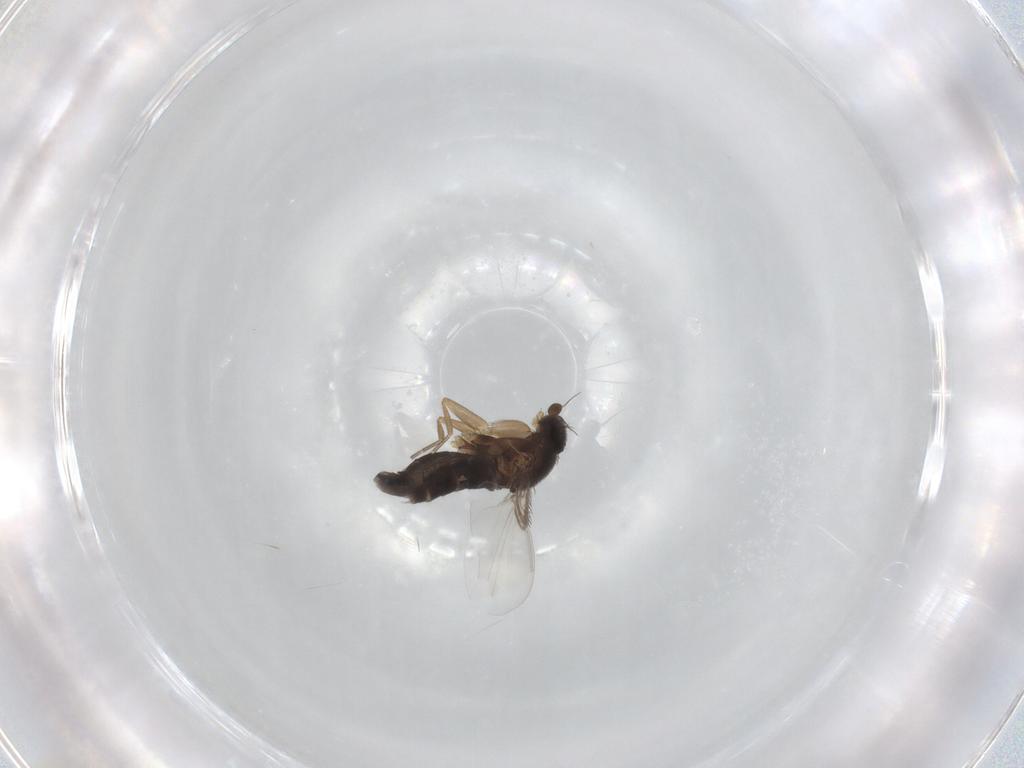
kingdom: Animalia
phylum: Arthropoda
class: Insecta
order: Diptera
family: Phoridae
